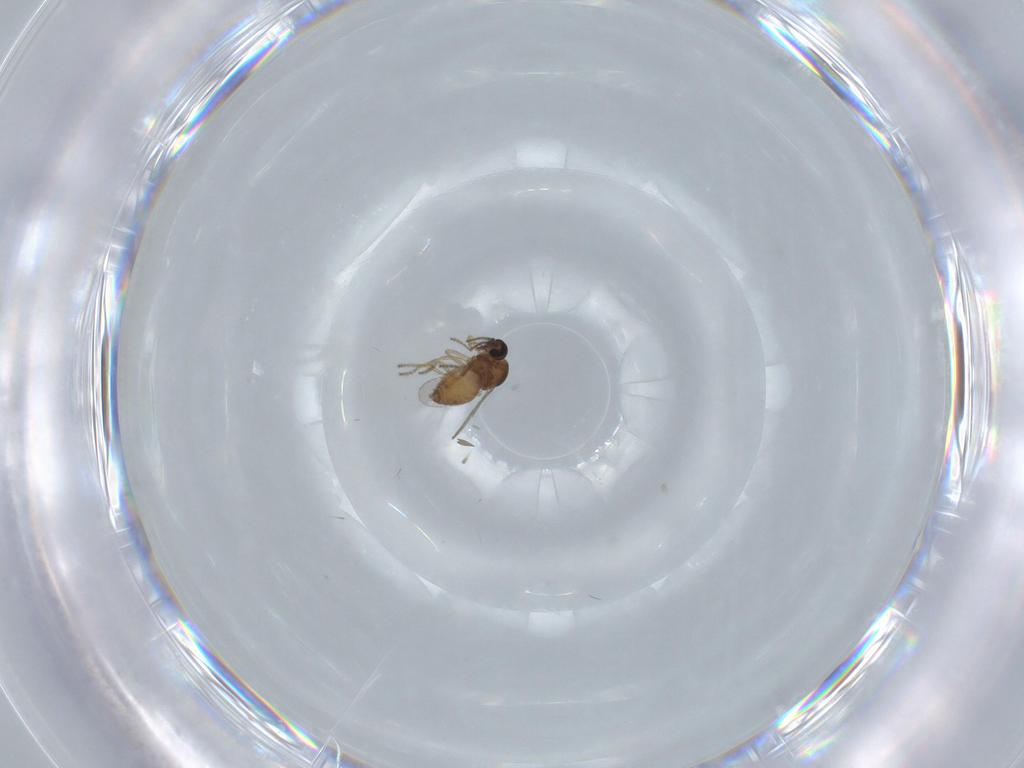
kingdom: Animalia
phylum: Arthropoda
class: Insecta
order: Diptera
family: Ceratopogonidae
